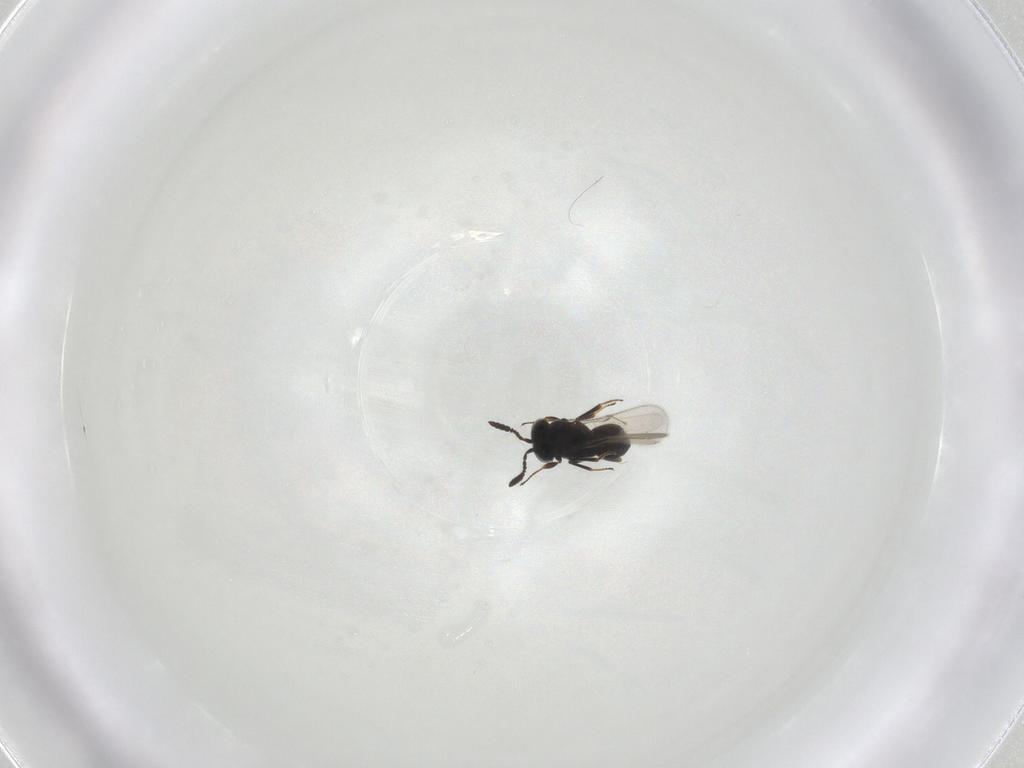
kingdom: Animalia
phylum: Arthropoda
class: Insecta
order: Hymenoptera
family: Scelionidae
